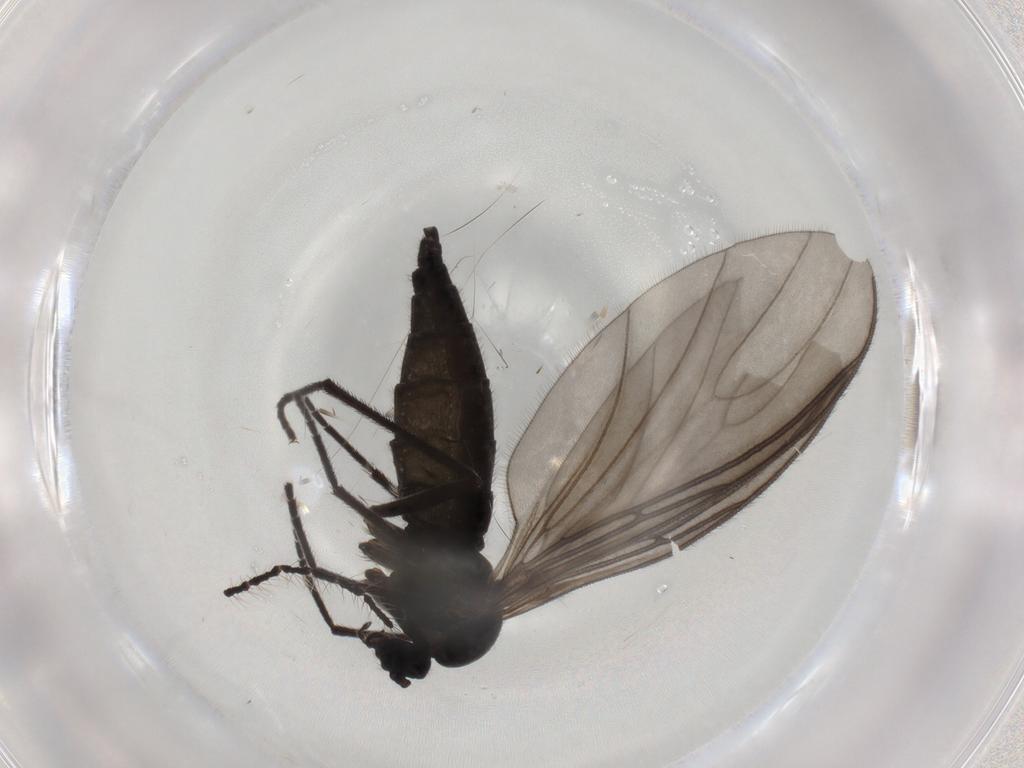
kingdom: Animalia
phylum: Arthropoda
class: Insecta
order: Diptera
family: Sciaridae
